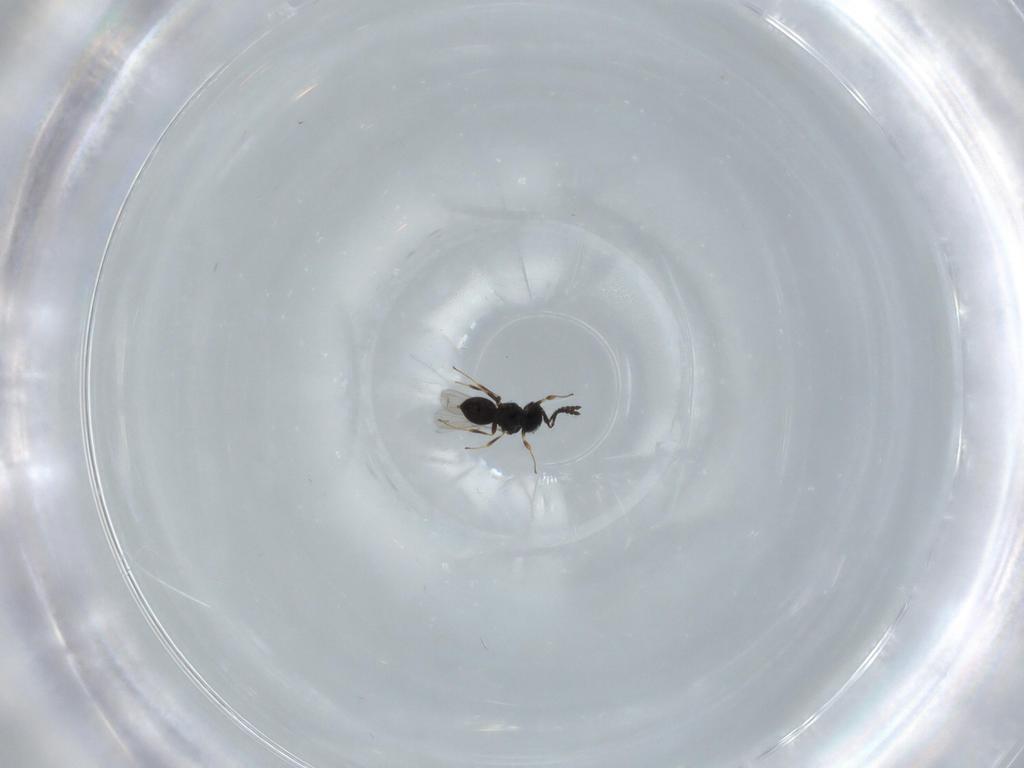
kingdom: Animalia
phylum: Arthropoda
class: Insecta
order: Hymenoptera
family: Scelionidae
